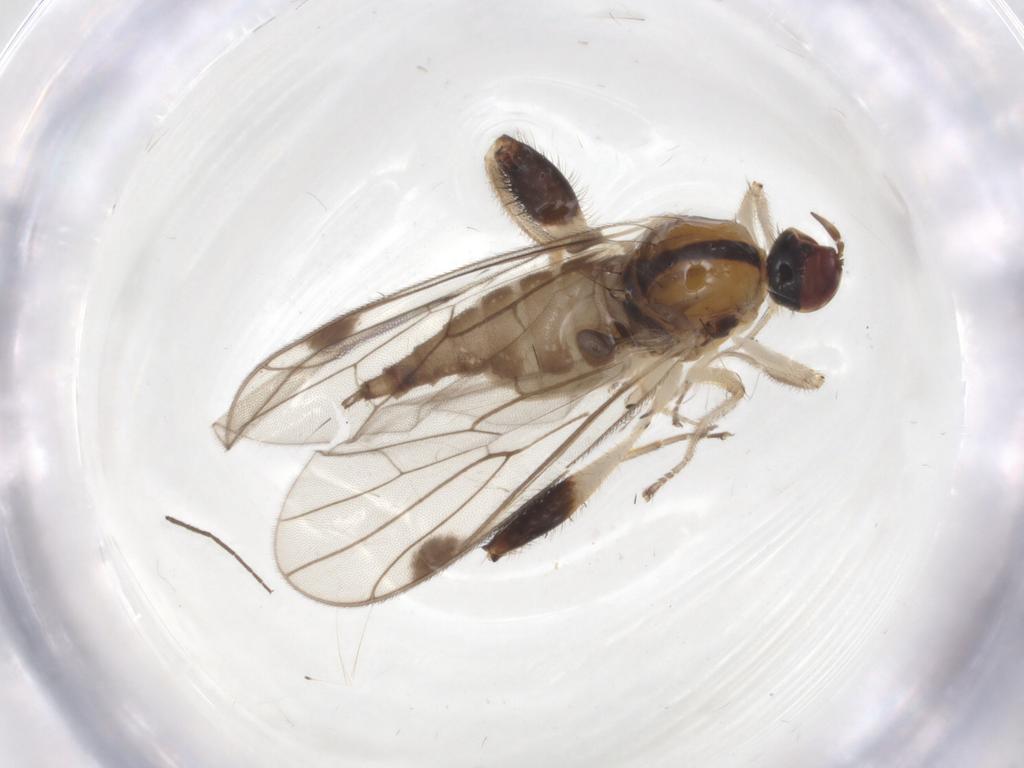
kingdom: Animalia
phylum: Arthropoda
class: Insecta
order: Diptera
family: Hybotidae
